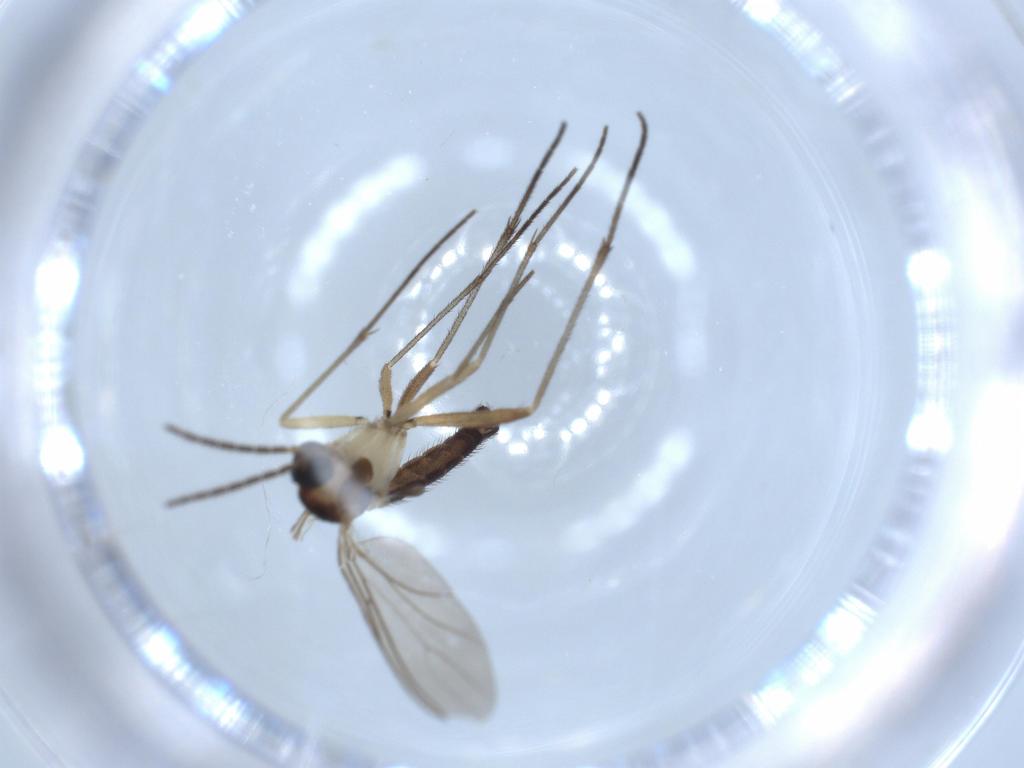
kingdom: Animalia
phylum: Arthropoda
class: Insecta
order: Diptera
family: Sciaridae
